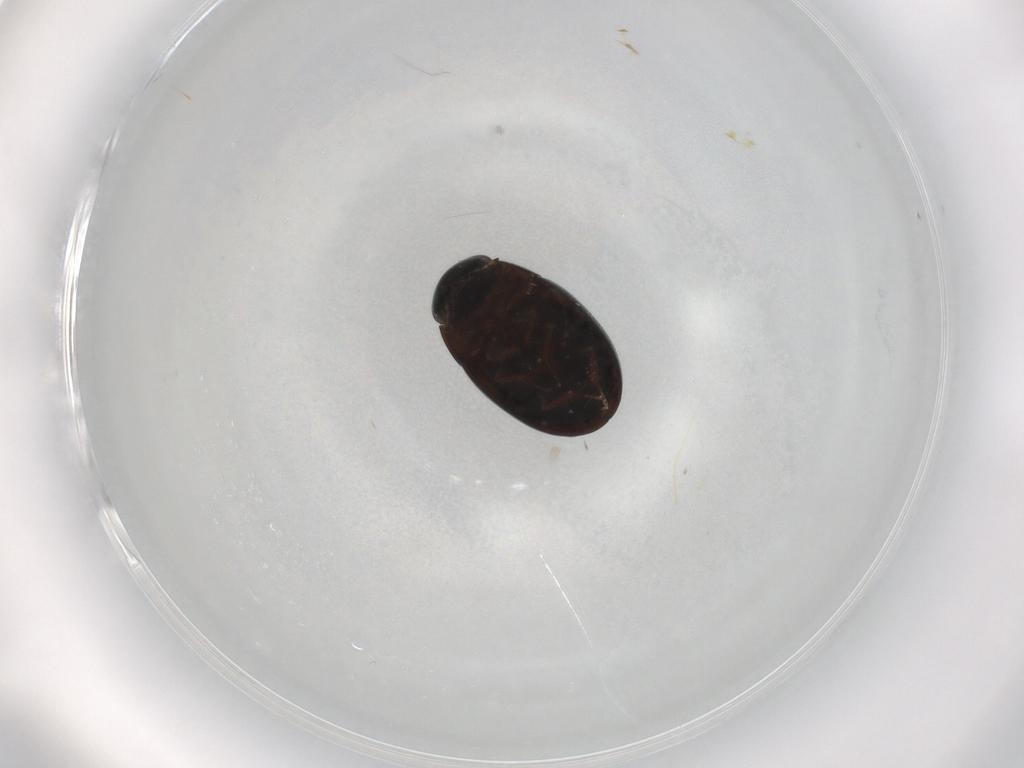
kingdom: Animalia
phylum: Arthropoda
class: Insecta
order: Coleoptera
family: Hydrophilidae
